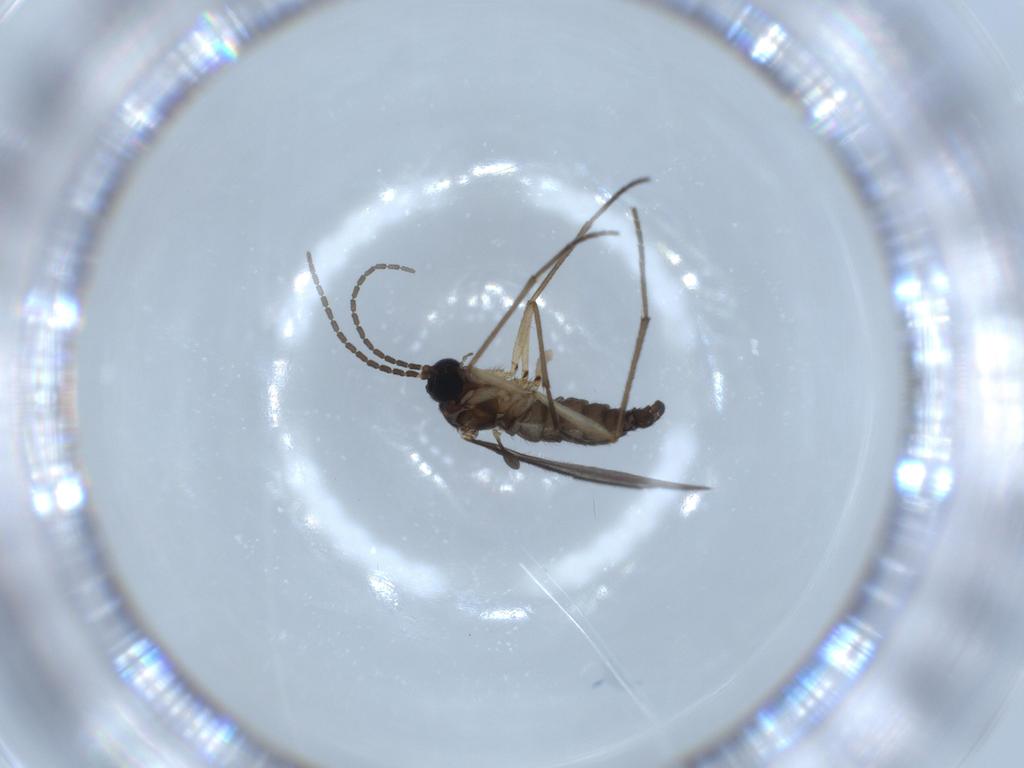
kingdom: Animalia
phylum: Arthropoda
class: Insecta
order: Diptera
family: Sciaridae
